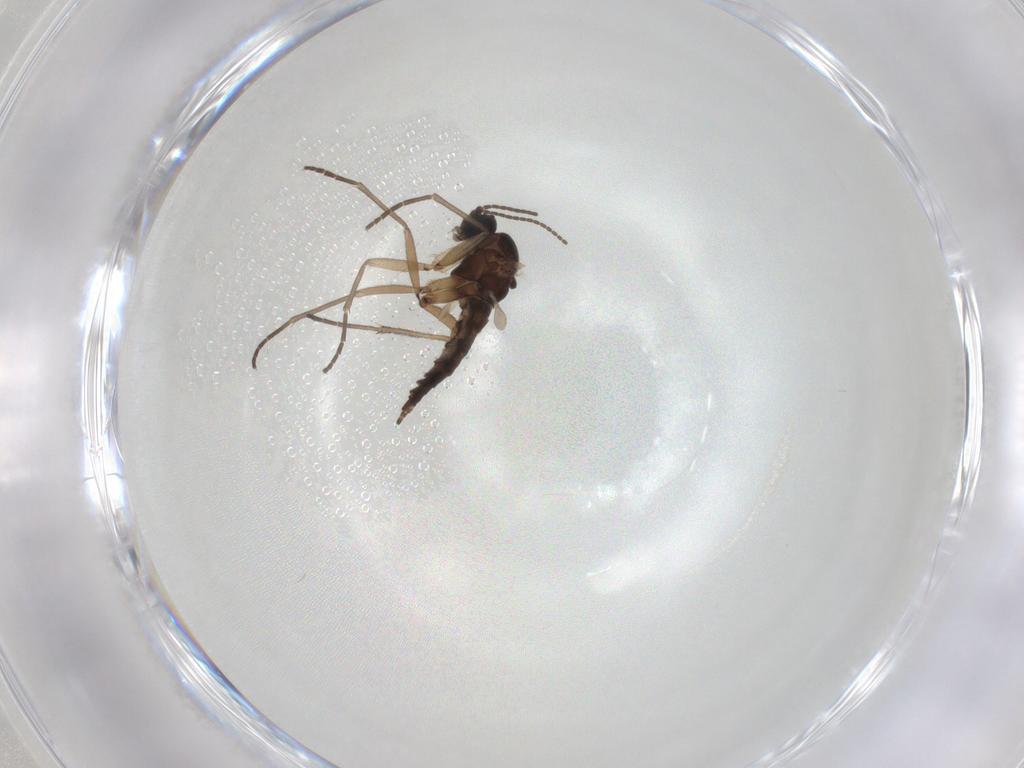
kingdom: Animalia
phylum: Arthropoda
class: Insecta
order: Diptera
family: Sciaridae
